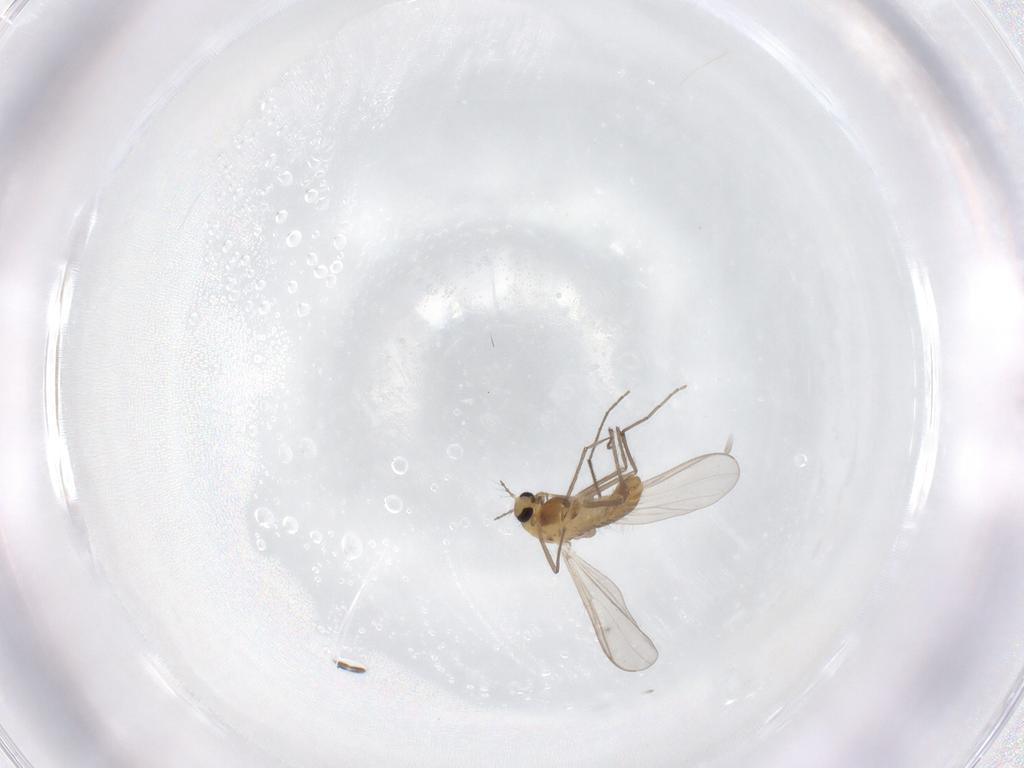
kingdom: Animalia
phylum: Arthropoda
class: Insecta
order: Diptera
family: Chironomidae
